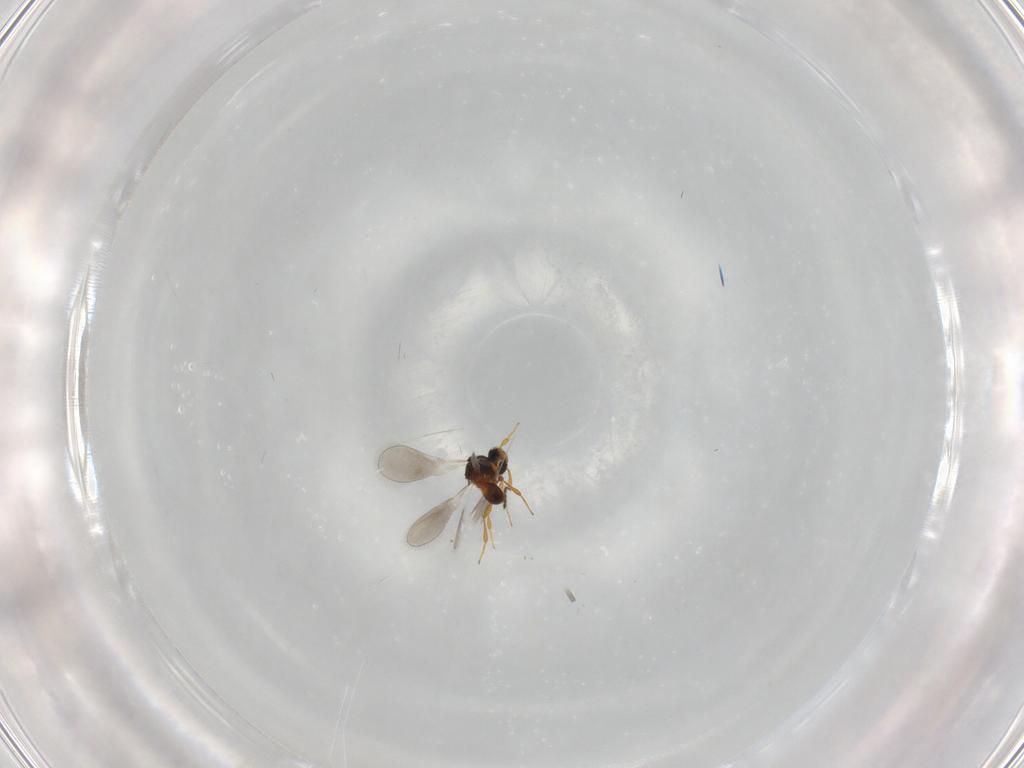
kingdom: Animalia
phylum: Arthropoda
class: Insecta
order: Hymenoptera
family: Platygastridae
